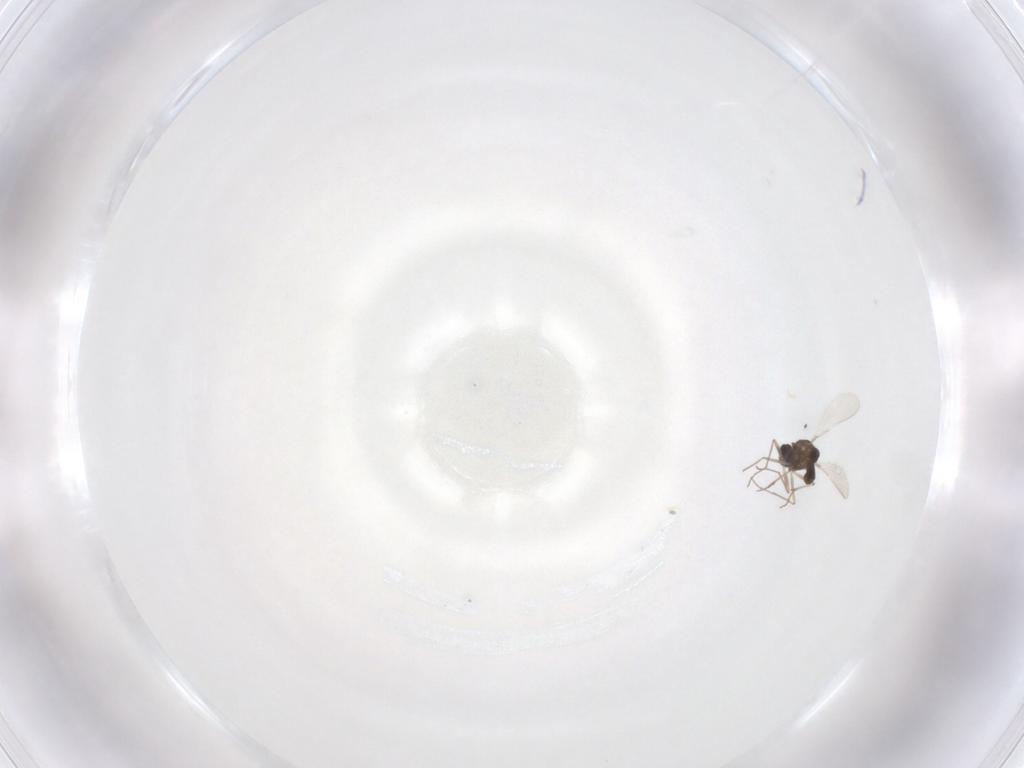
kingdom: Animalia
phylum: Arthropoda
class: Insecta
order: Diptera
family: Chironomidae
